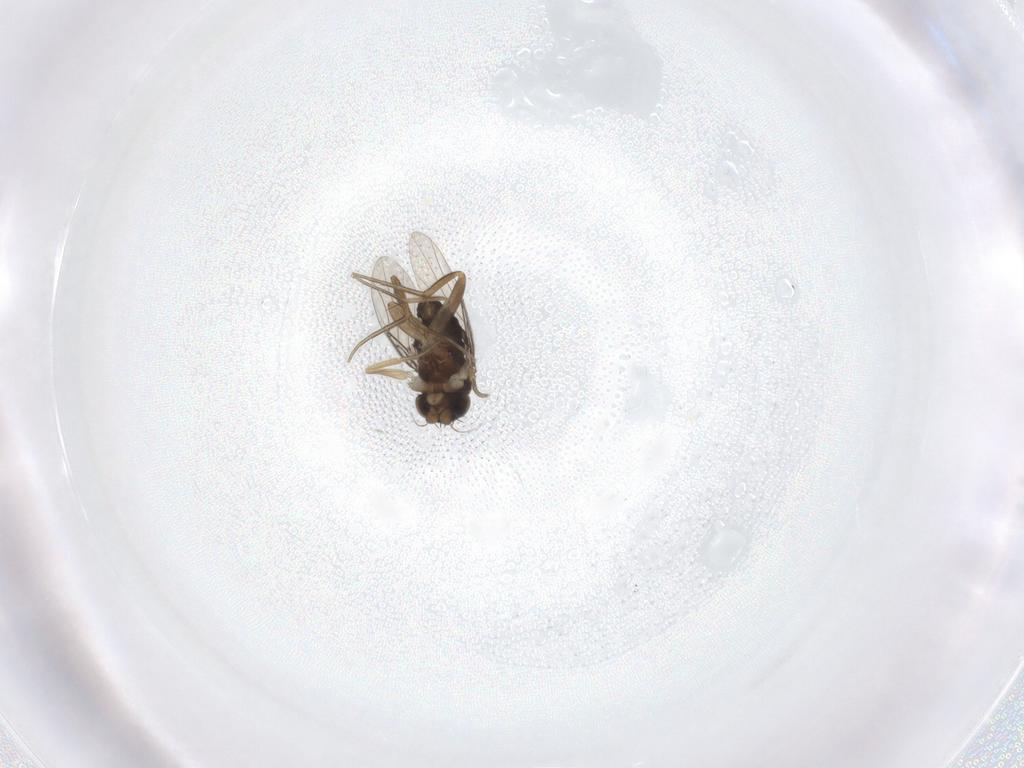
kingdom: Animalia
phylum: Arthropoda
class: Insecta
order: Diptera
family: Phoridae
